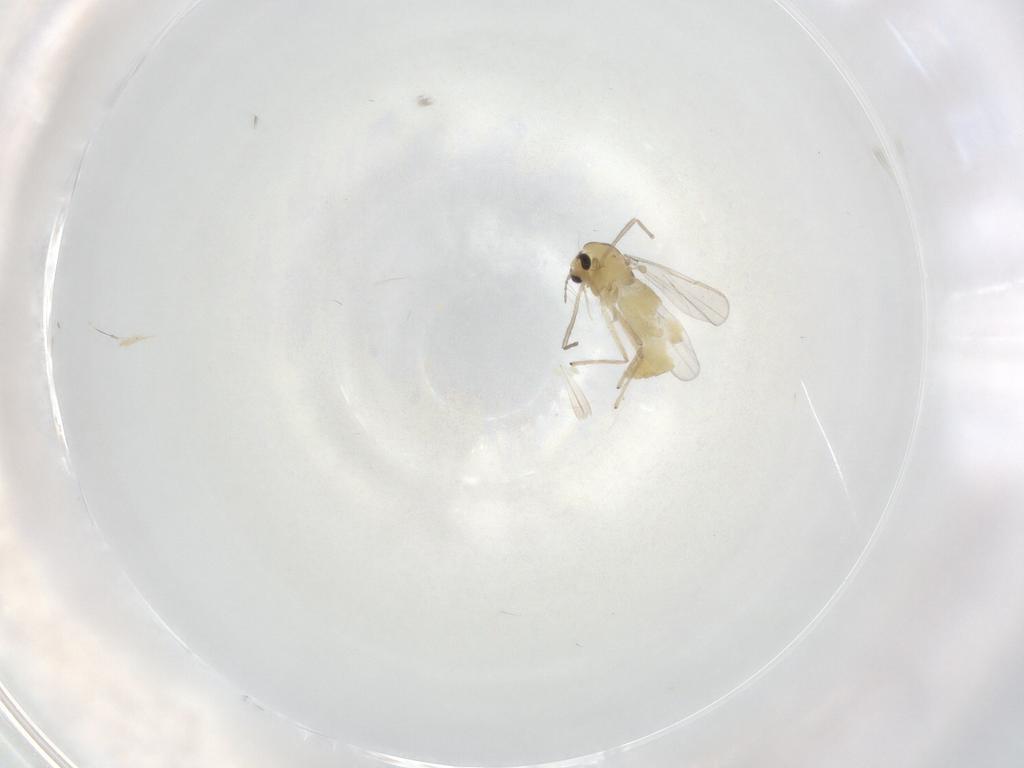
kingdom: Animalia
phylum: Arthropoda
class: Insecta
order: Diptera
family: Chironomidae
